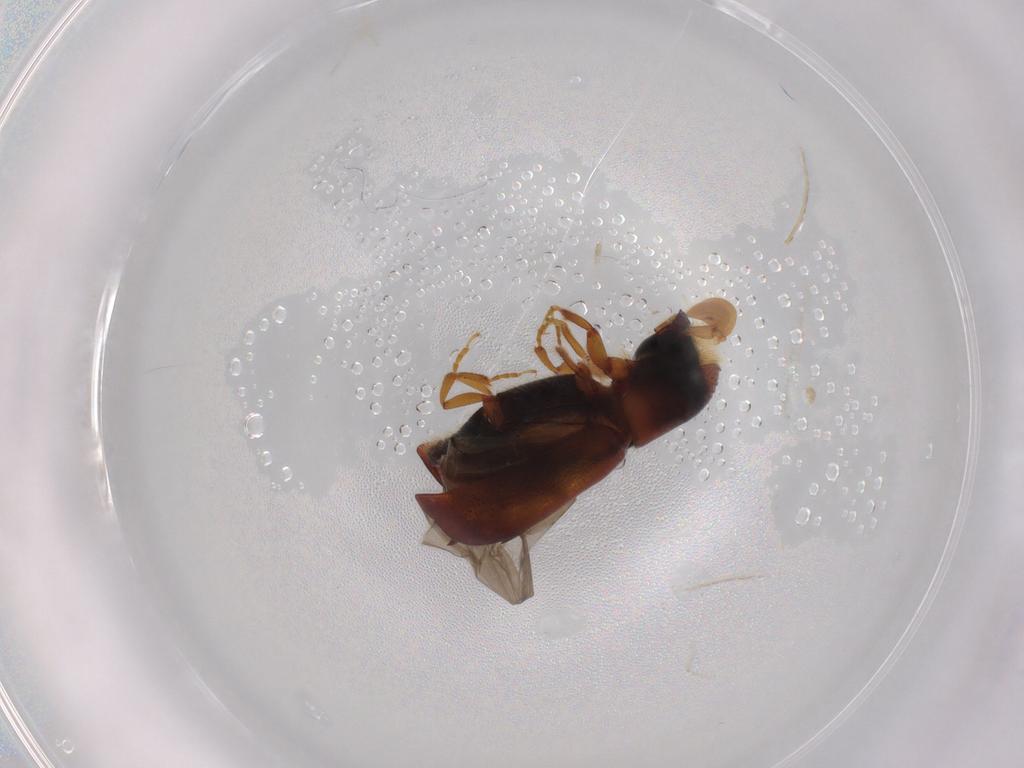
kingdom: Animalia
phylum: Arthropoda
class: Insecta
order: Coleoptera
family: Curculionidae
